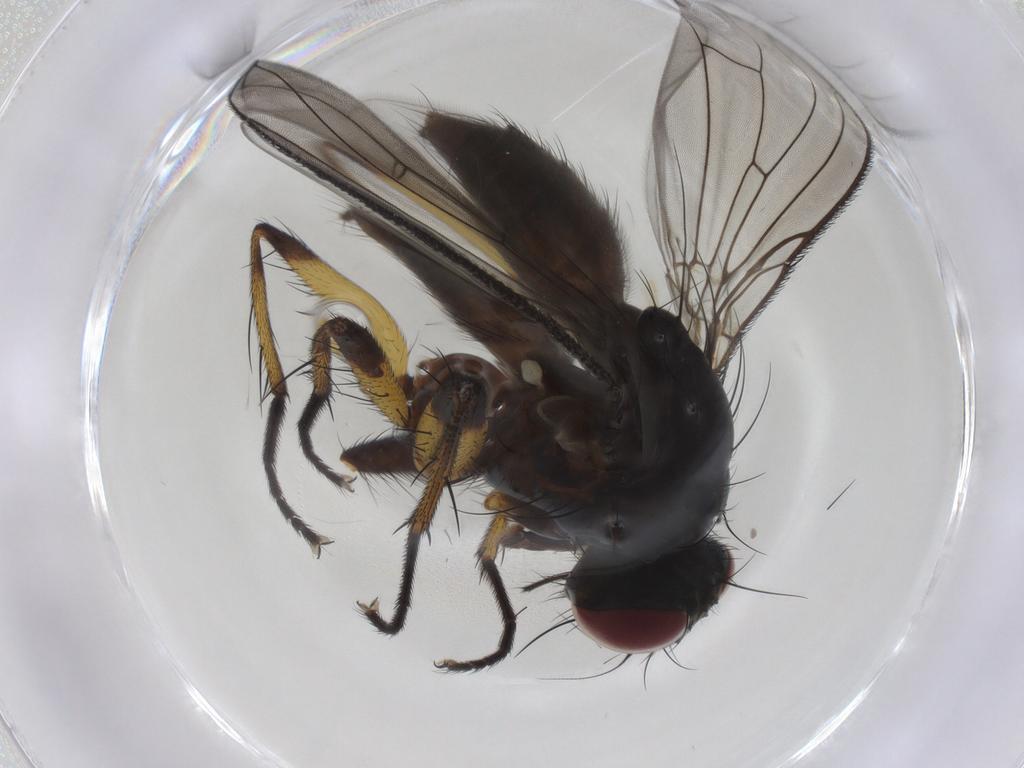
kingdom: Animalia
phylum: Arthropoda
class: Insecta
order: Diptera
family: Muscidae
